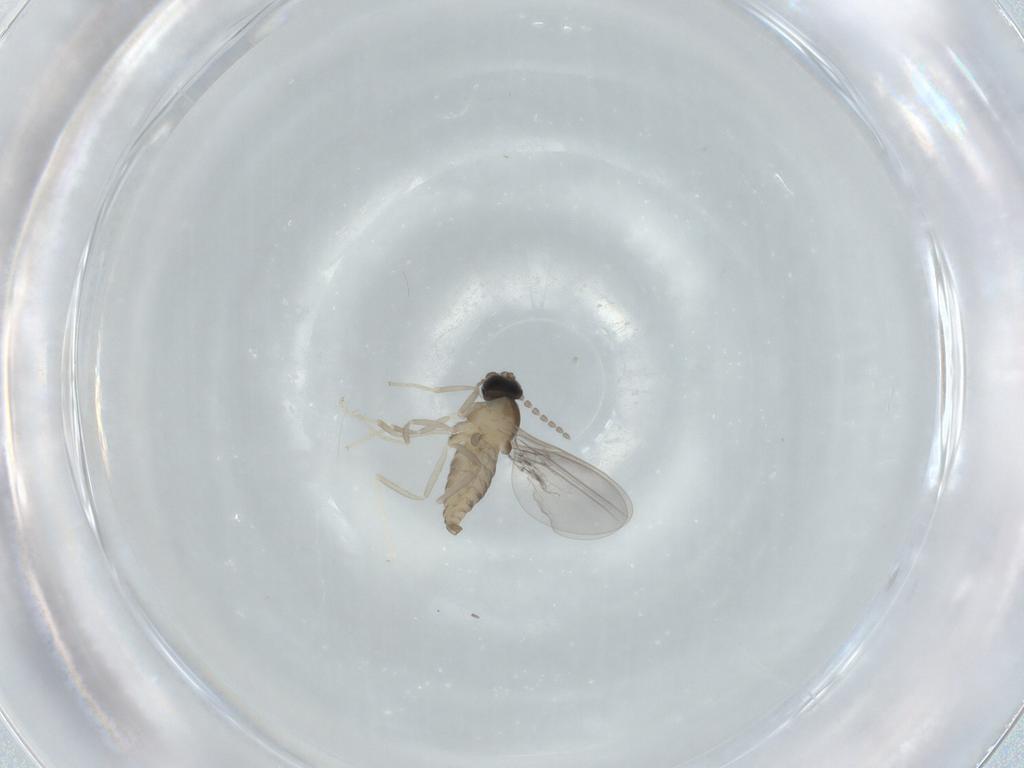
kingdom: Animalia
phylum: Arthropoda
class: Insecta
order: Diptera
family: Cecidomyiidae
